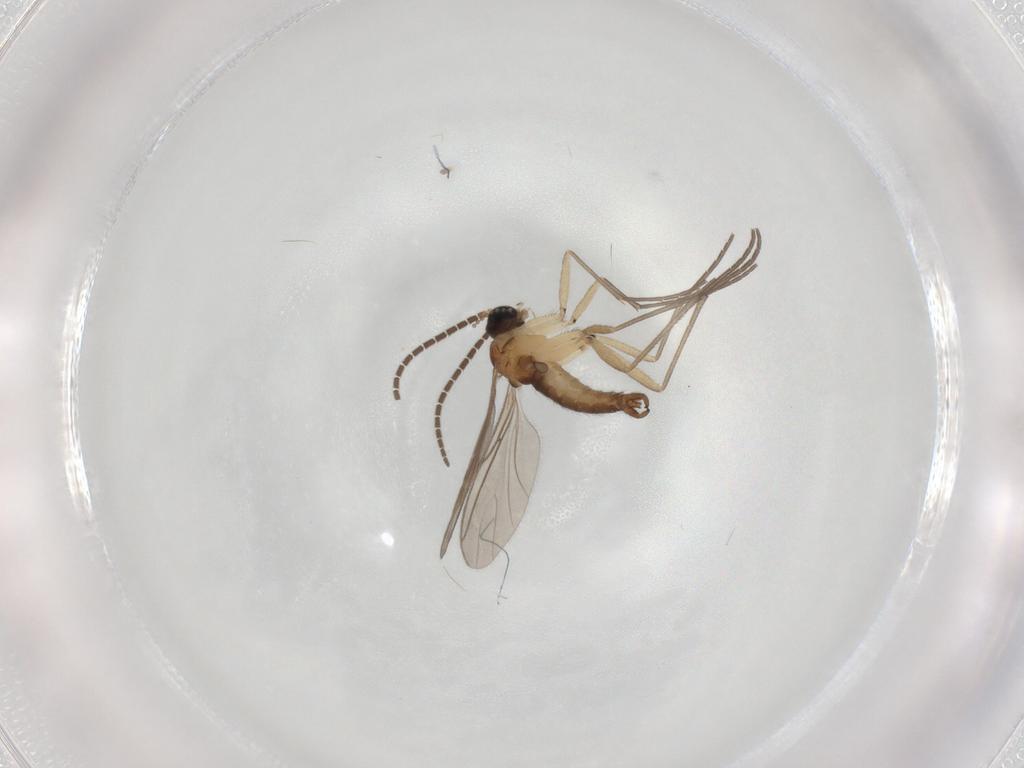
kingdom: Animalia
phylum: Arthropoda
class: Insecta
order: Diptera
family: Sciaridae
